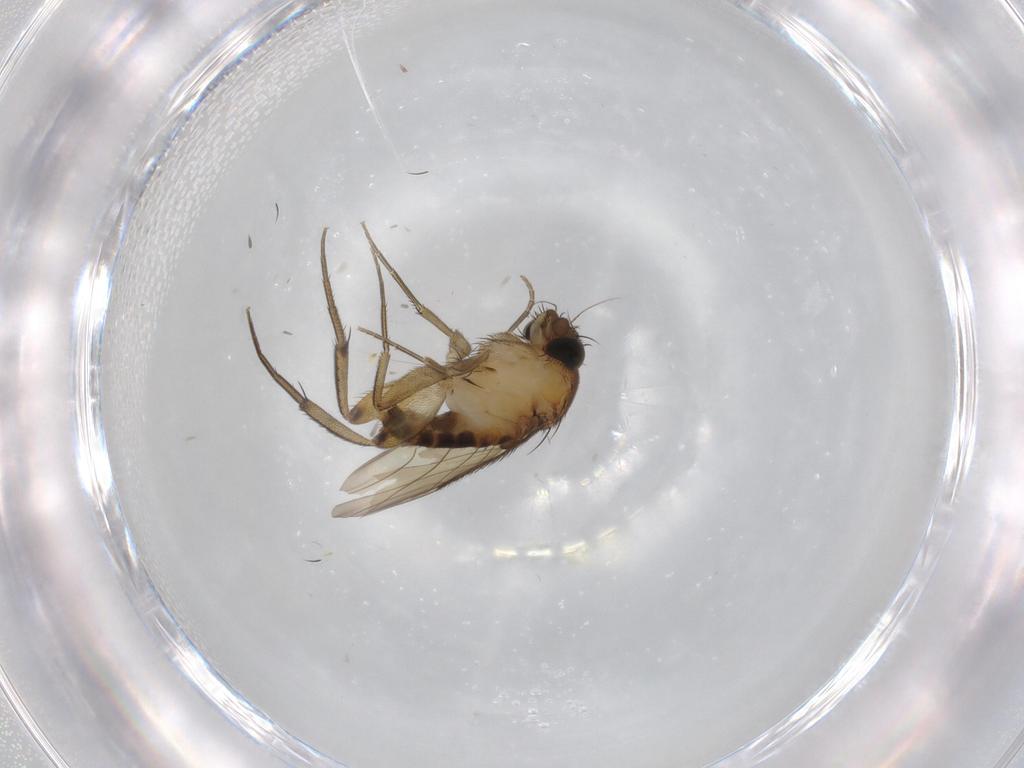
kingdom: Animalia
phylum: Arthropoda
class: Insecta
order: Diptera
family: Phoridae
